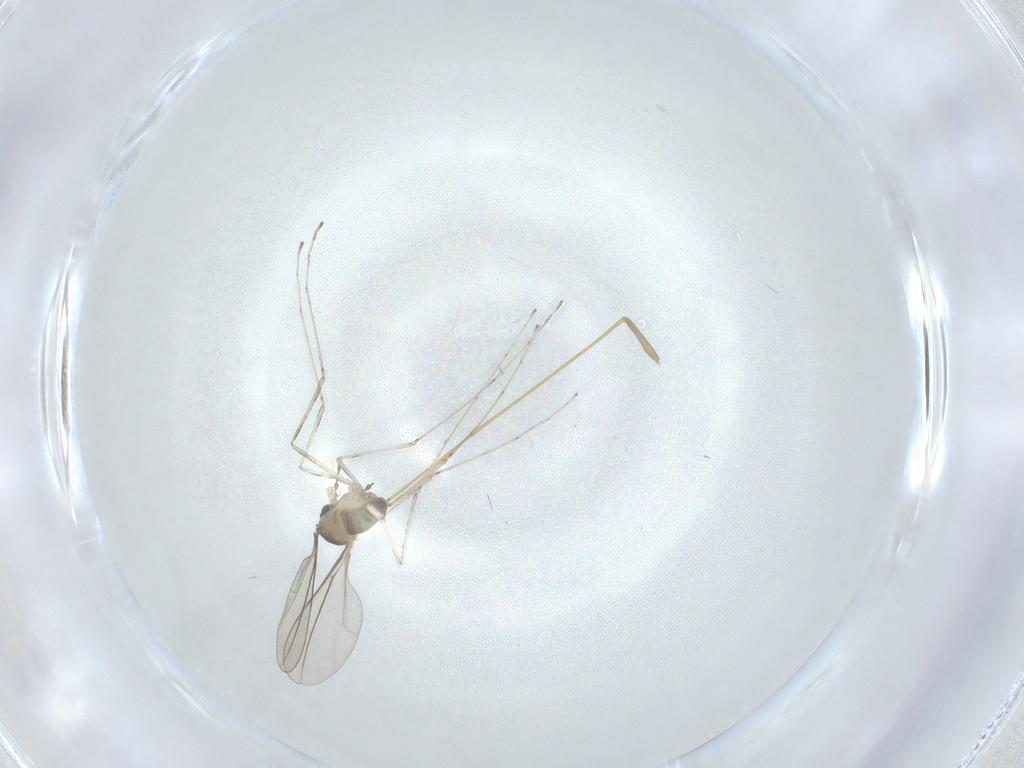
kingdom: Animalia
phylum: Arthropoda
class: Insecta
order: Diptera
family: Cecidomyiidae
